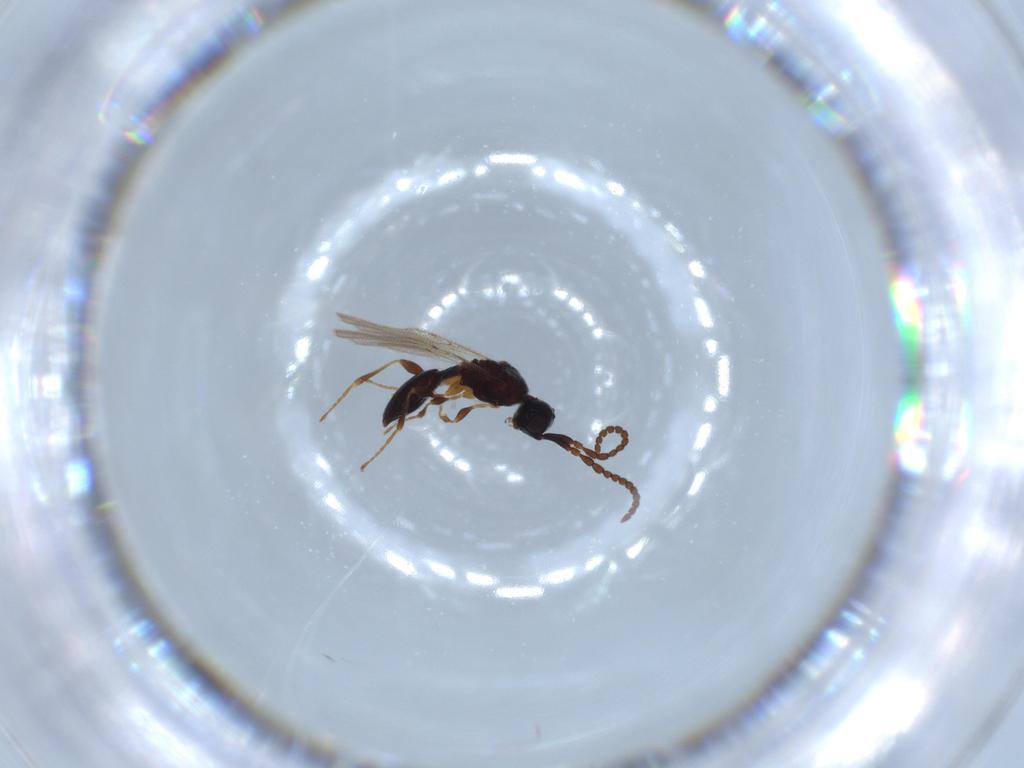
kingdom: Animalia
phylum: Arthropoda
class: Insecta
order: Hymenoptera
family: Diapriidae
